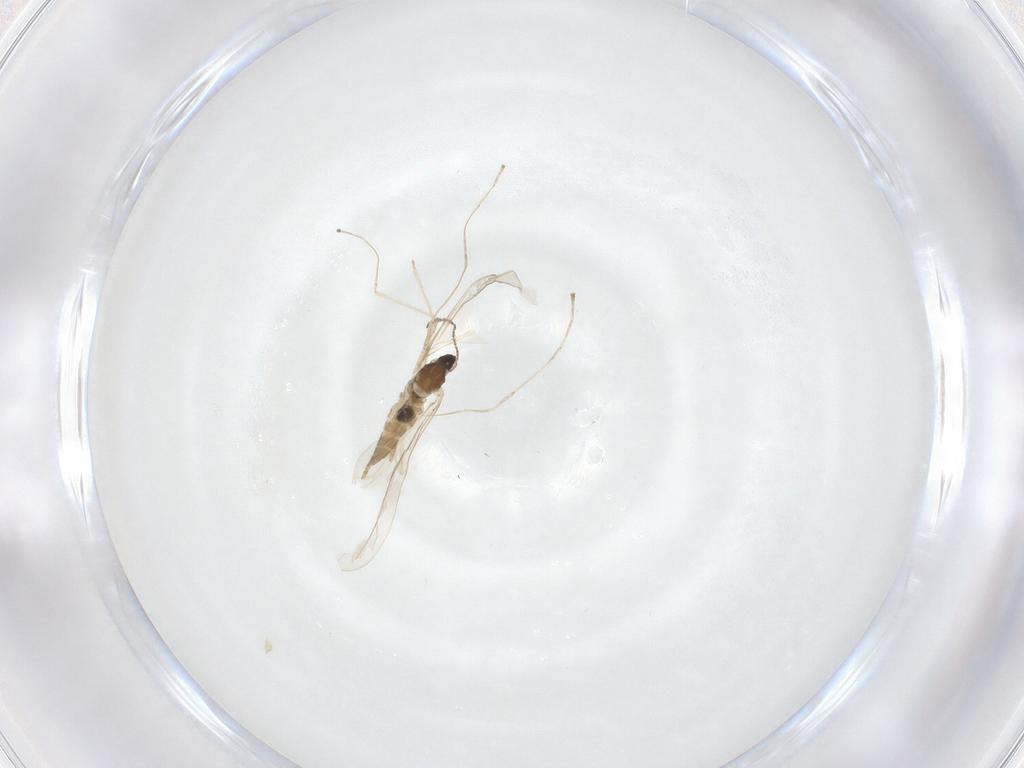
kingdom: Animalia
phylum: Arthropoda
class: Insecta
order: Diptera
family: Cecidomyiidae
